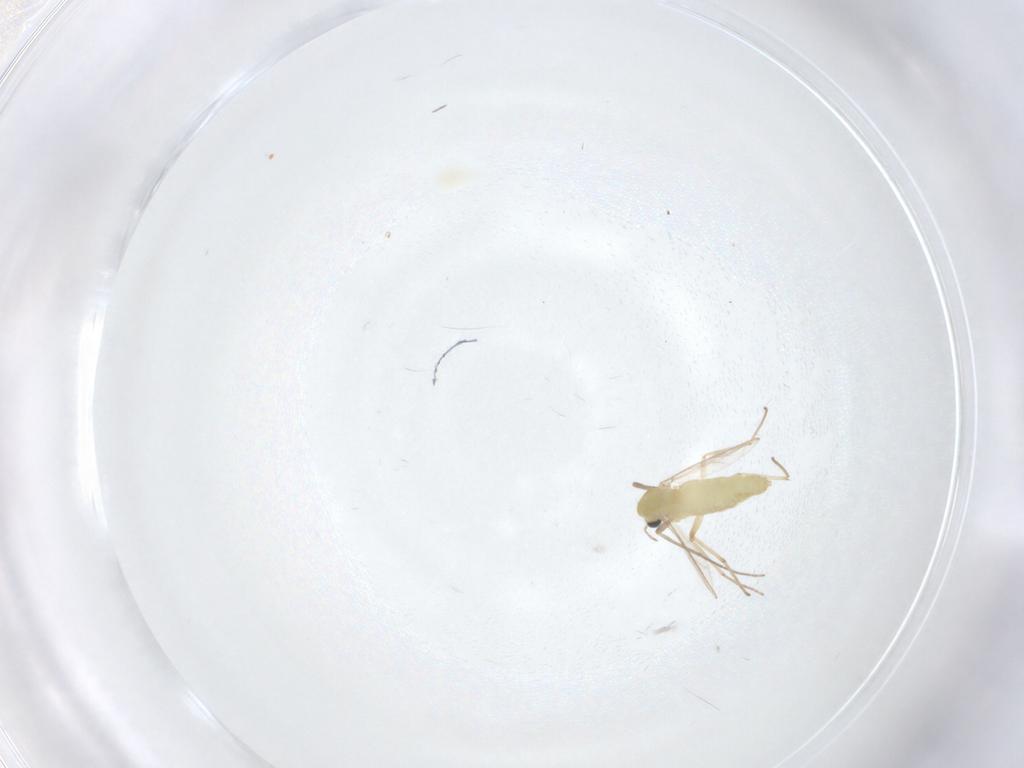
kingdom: Animalia
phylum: Arthropoda
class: Insecta
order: Diptera
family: Chironomidae
